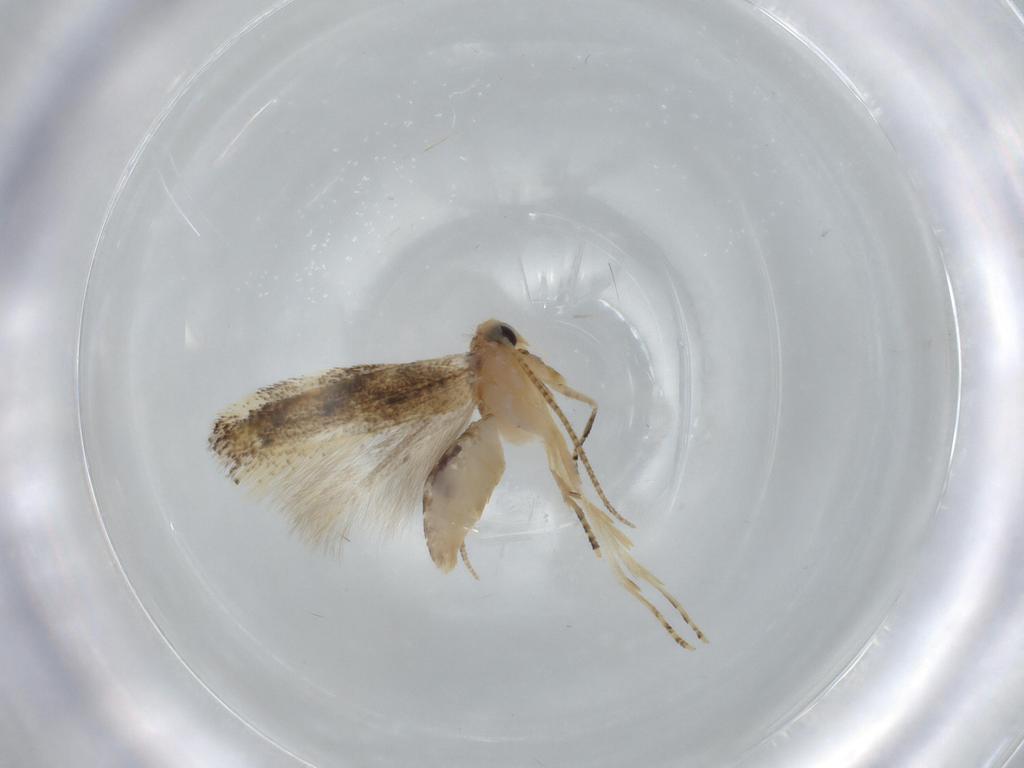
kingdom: Animalia
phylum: Arthropoda
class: Insecta
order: Lepidoptera
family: Bucculatricidae
